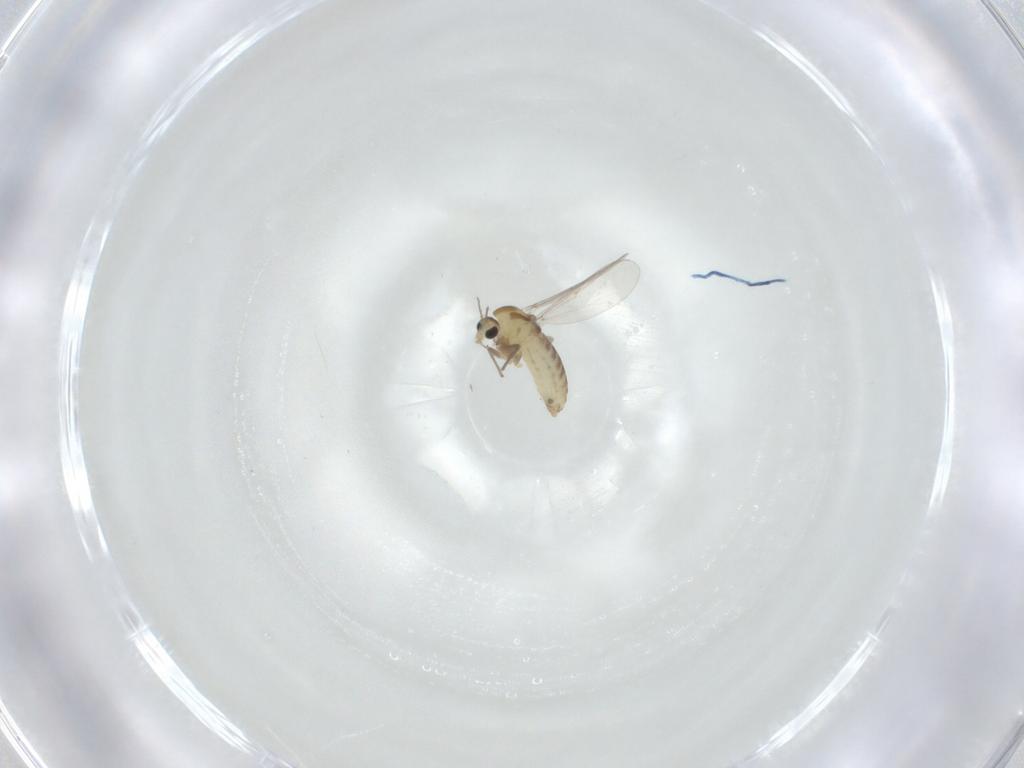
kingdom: Animalia
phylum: Arthropoda
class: Insecta
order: Diptera
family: Chironomidae
